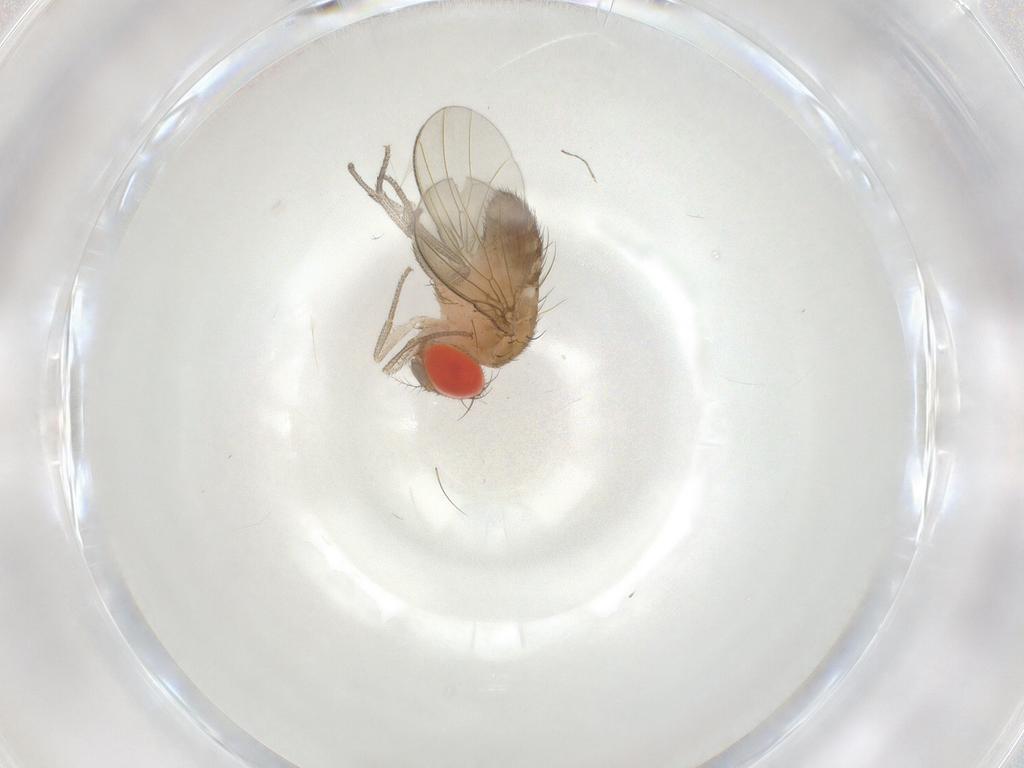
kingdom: Animalia
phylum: Arthropoda
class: Insecta
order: Diptera
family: Drosophilidae
